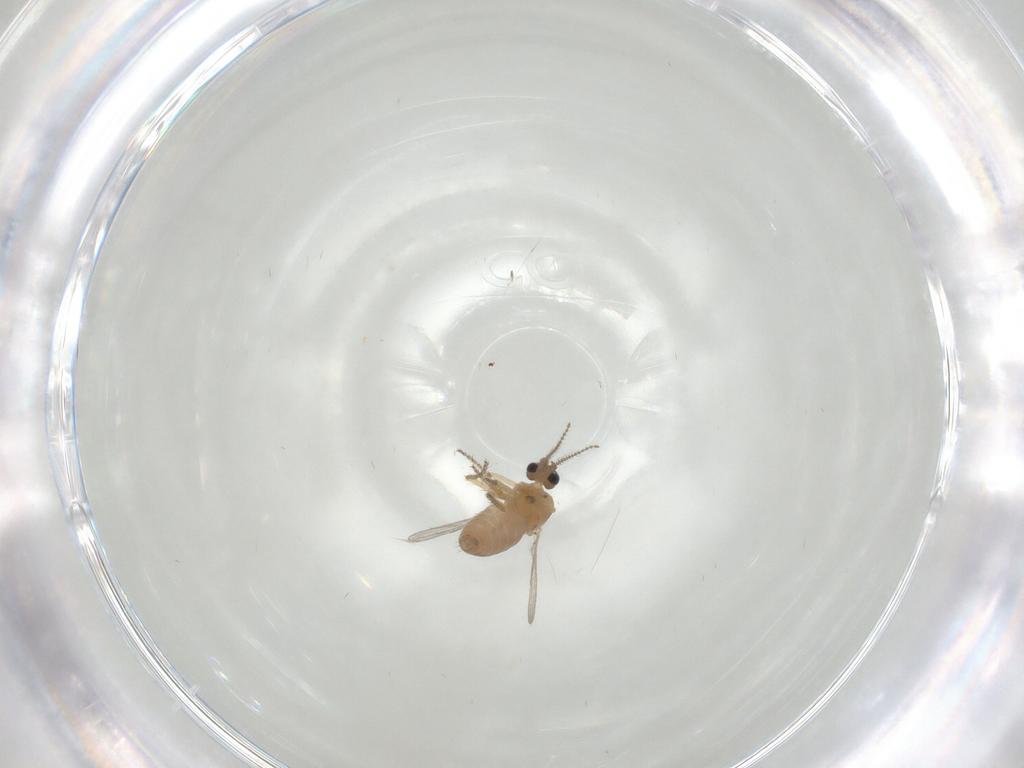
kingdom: Animalia
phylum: Arthropoda
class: Insecta
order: Diptera
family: Ceratopogonidae
